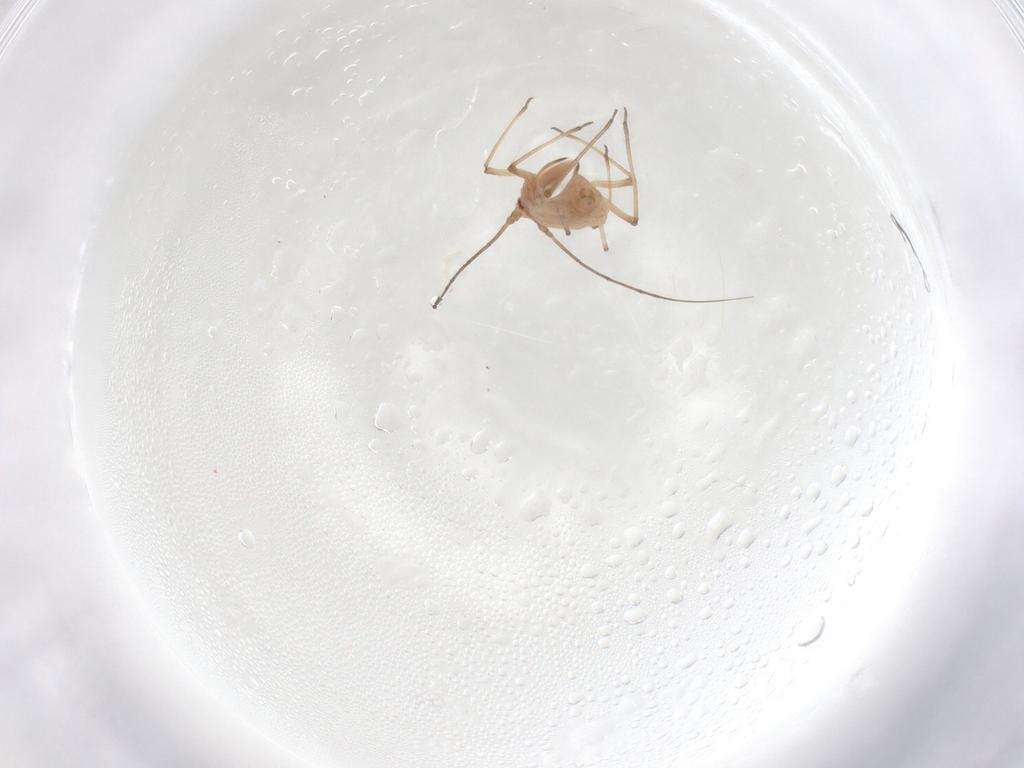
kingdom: Animalia
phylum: Arthropoda
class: Insecta
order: Hemiptera
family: Aphididae
